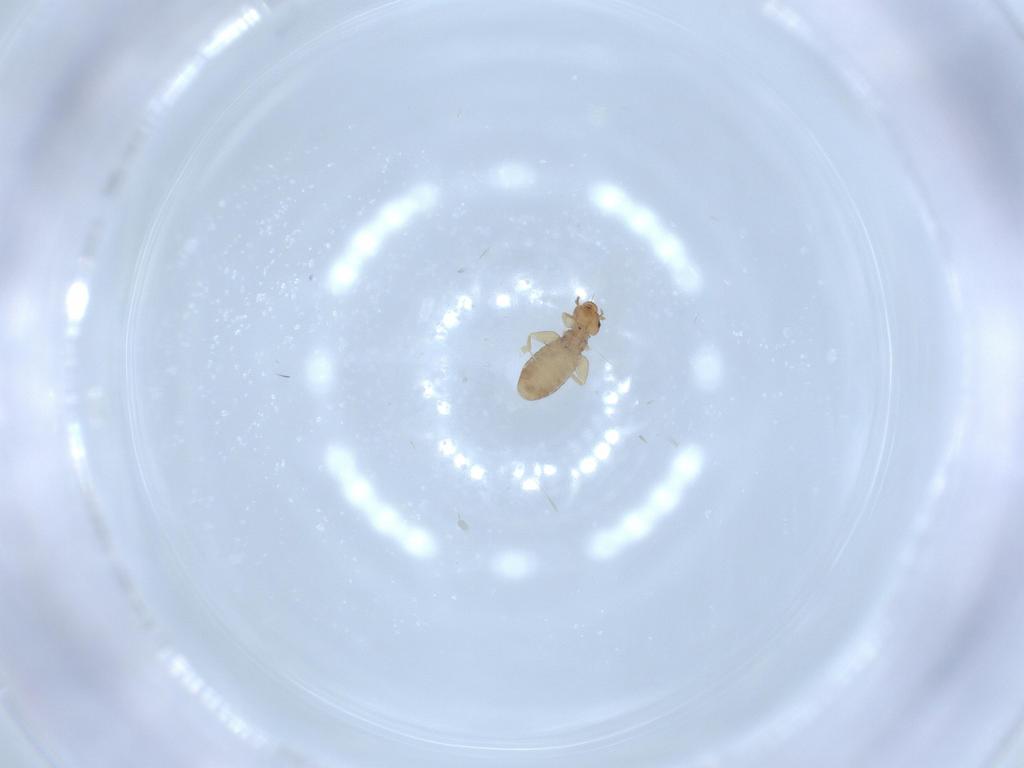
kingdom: Animalia
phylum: Arthropoda
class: Insecta
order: Psocodea
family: Liposcelididae
